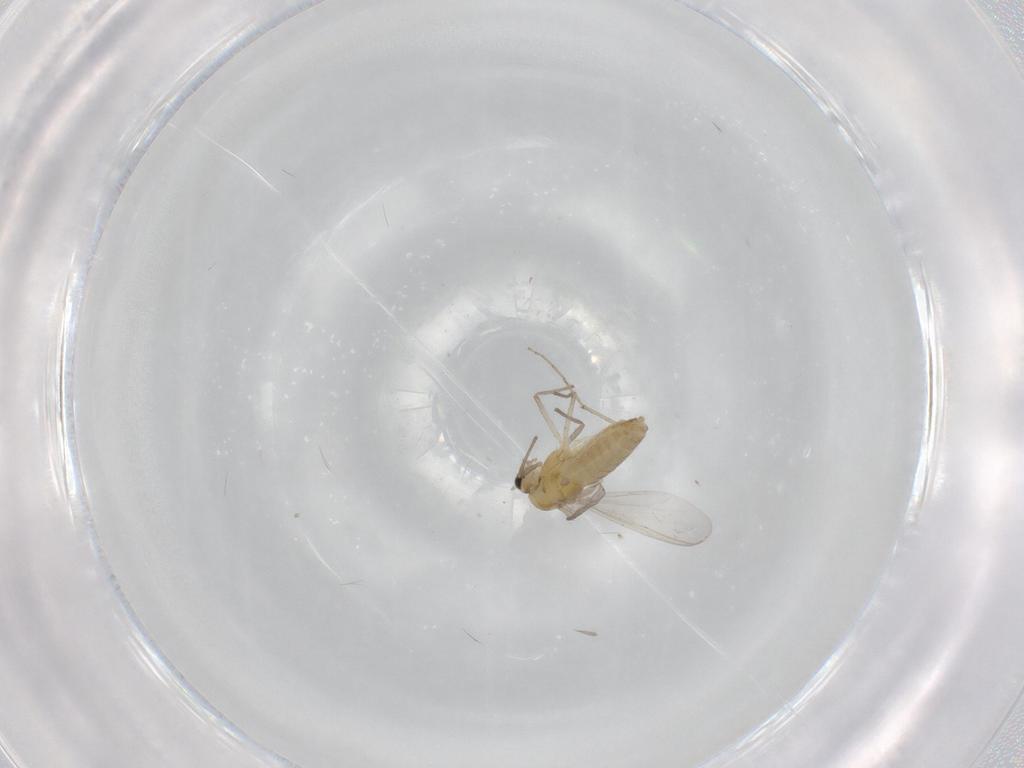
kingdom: Animalia
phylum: Arthropoda
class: Insecta
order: Diptera
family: Chironomidae
